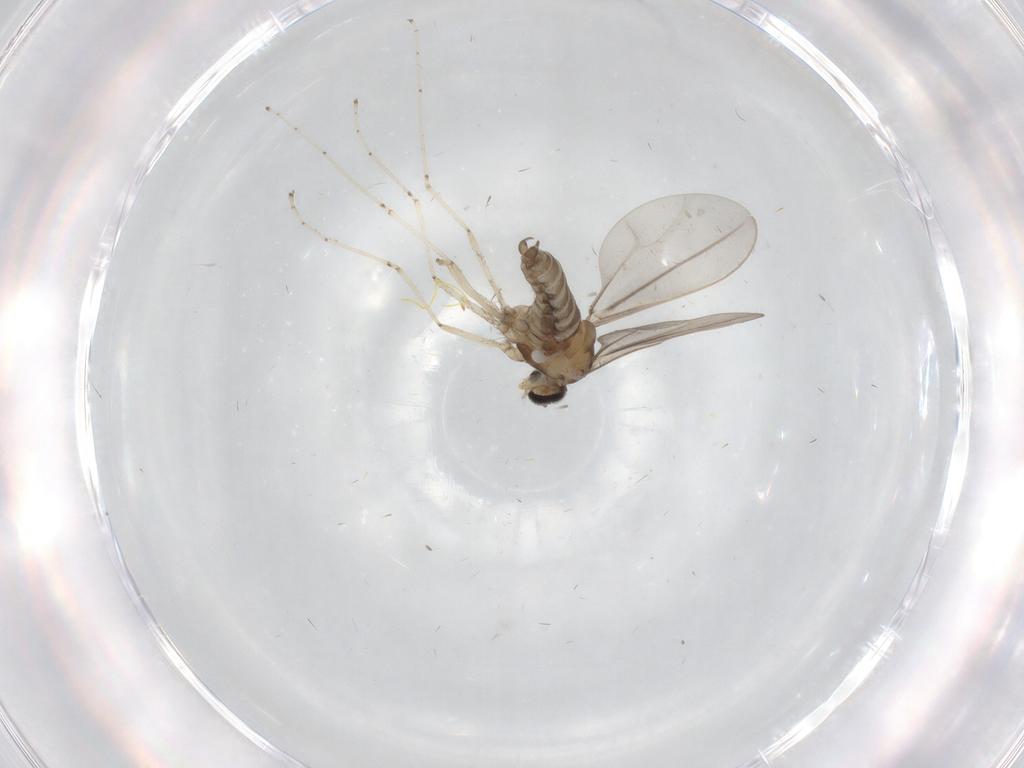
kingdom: Animalia
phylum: Arthropoda
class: Insecta
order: Diptera
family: Cecidomyiidae
